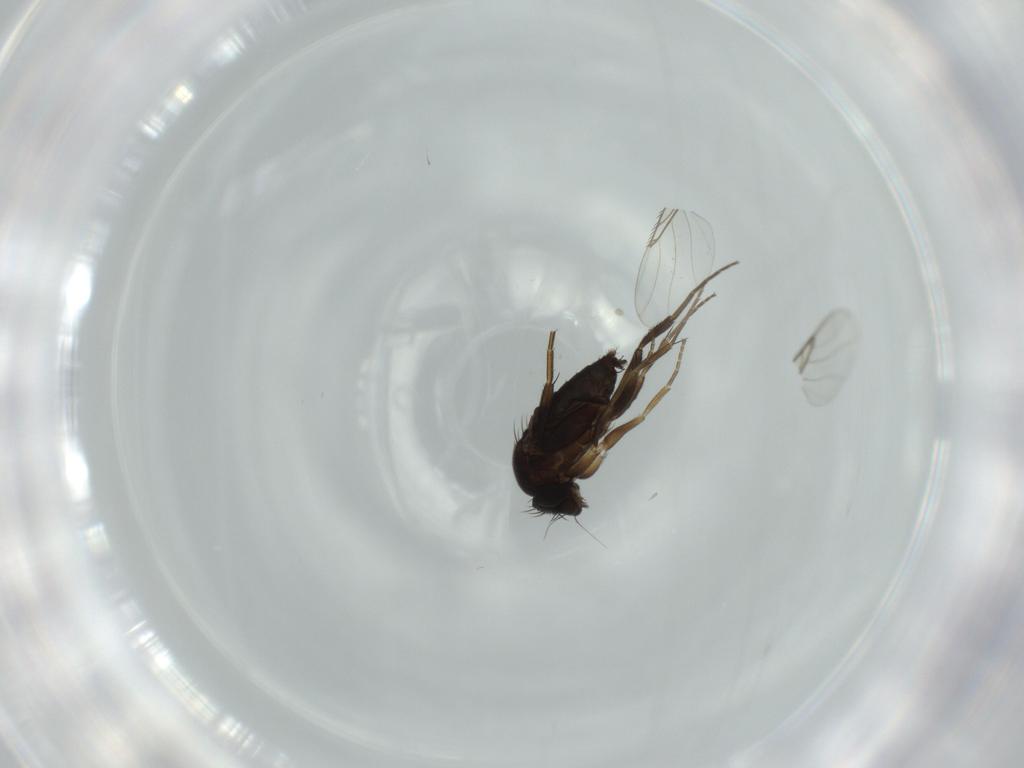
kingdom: Animalia
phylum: Arthropoda
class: Insecta
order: Diptera
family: Phoridae
